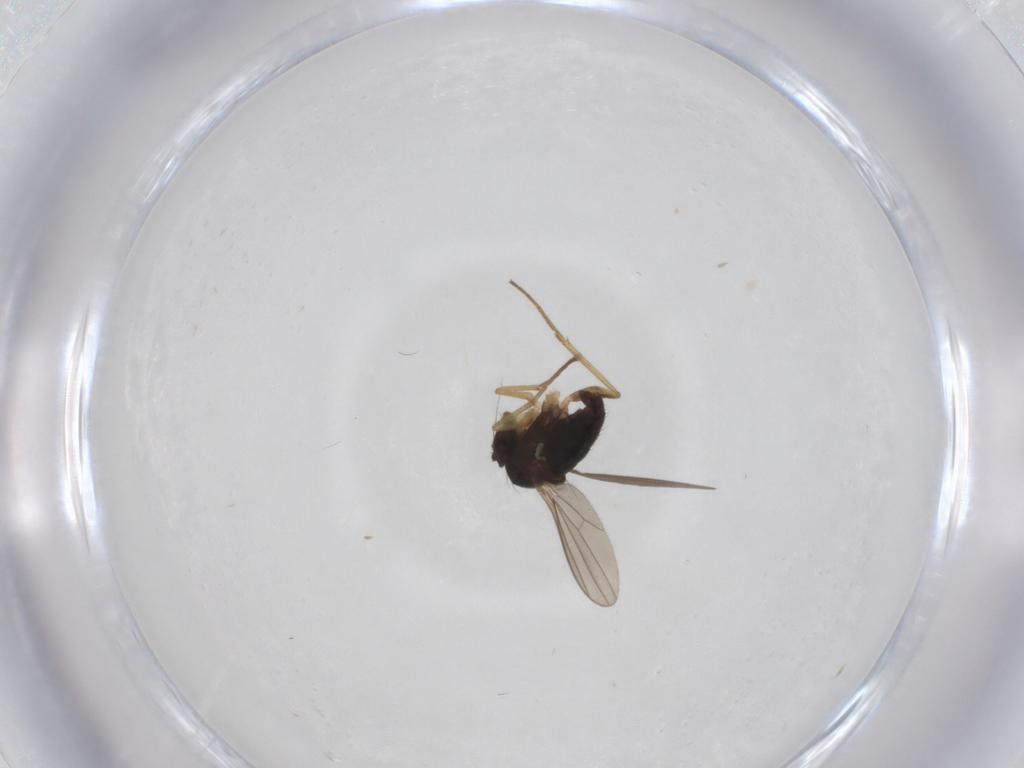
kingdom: Animalia
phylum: Arthropoda
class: Insecta
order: Diptera
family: Dolichopodidae
